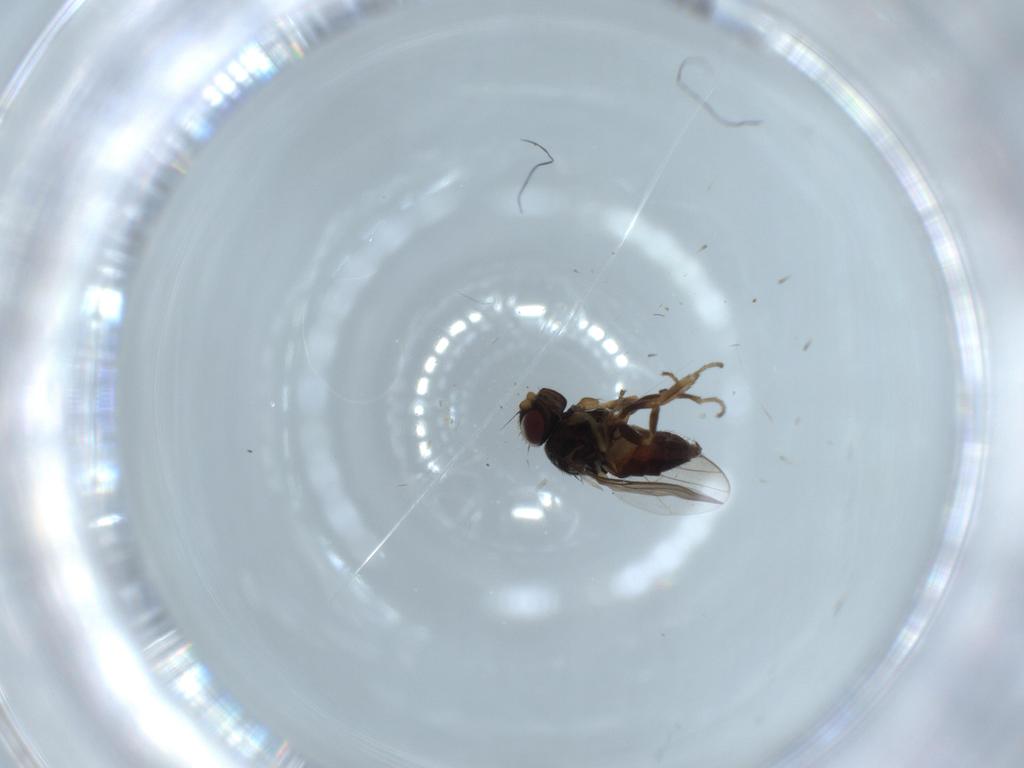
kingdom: Animalia
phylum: Arthropoda
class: Insecta
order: Diptera
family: Chloropidae
